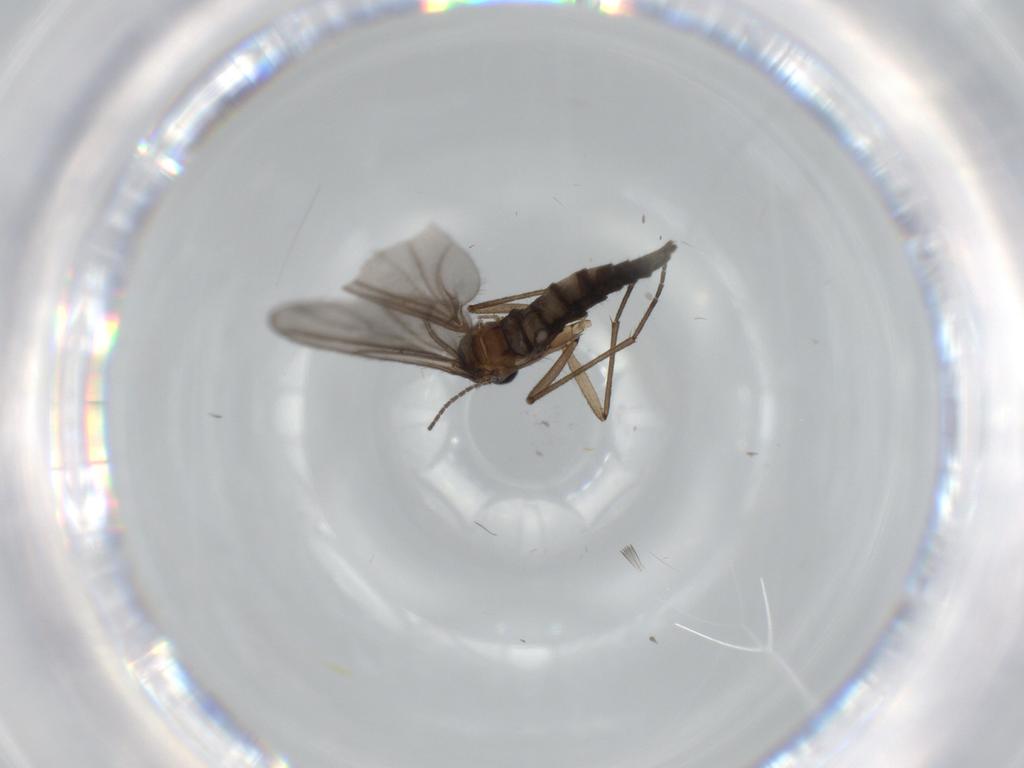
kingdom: Animalia
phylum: Arthropoda
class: Insecta
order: Diptera
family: Sciaridae
